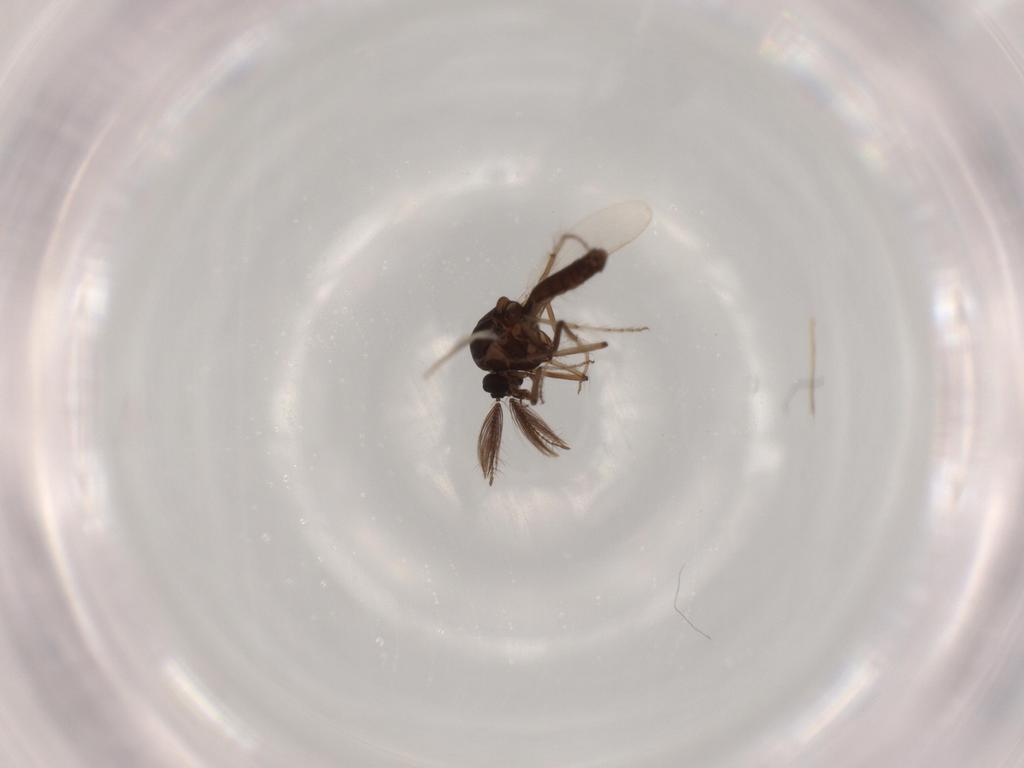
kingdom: Animalia
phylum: Arthropoda
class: Insecta
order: Diptera
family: Chironomidae
